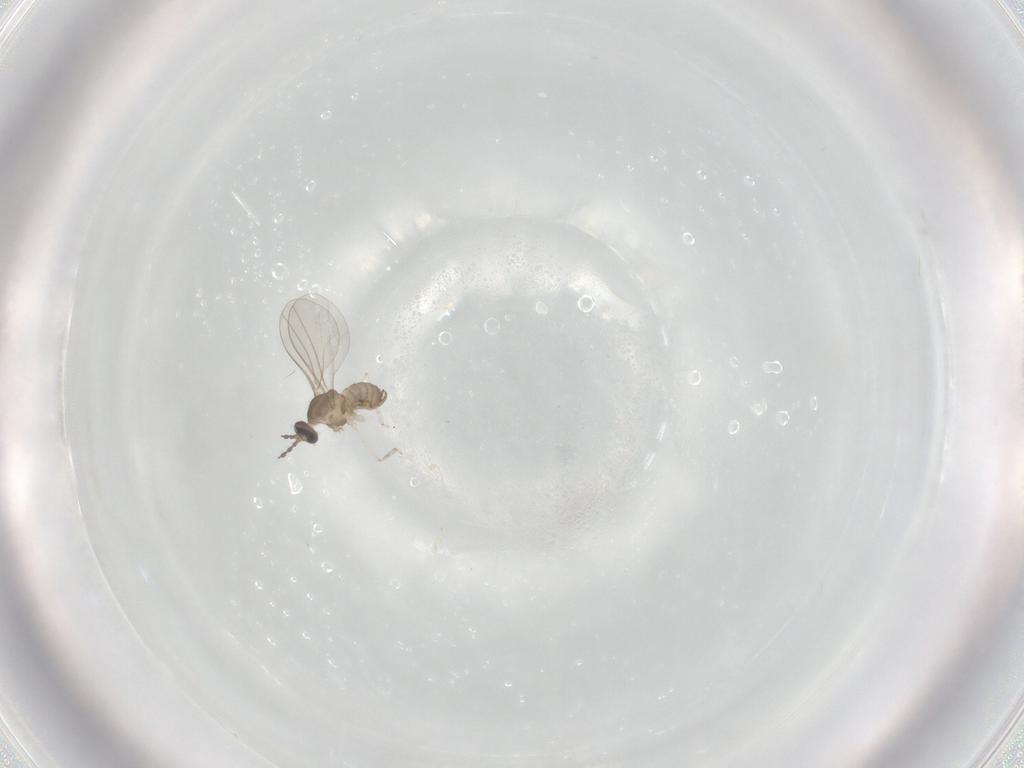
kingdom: Animalia
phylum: Arthropoda
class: Insecta
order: Diptera
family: Cecidomyiidae
